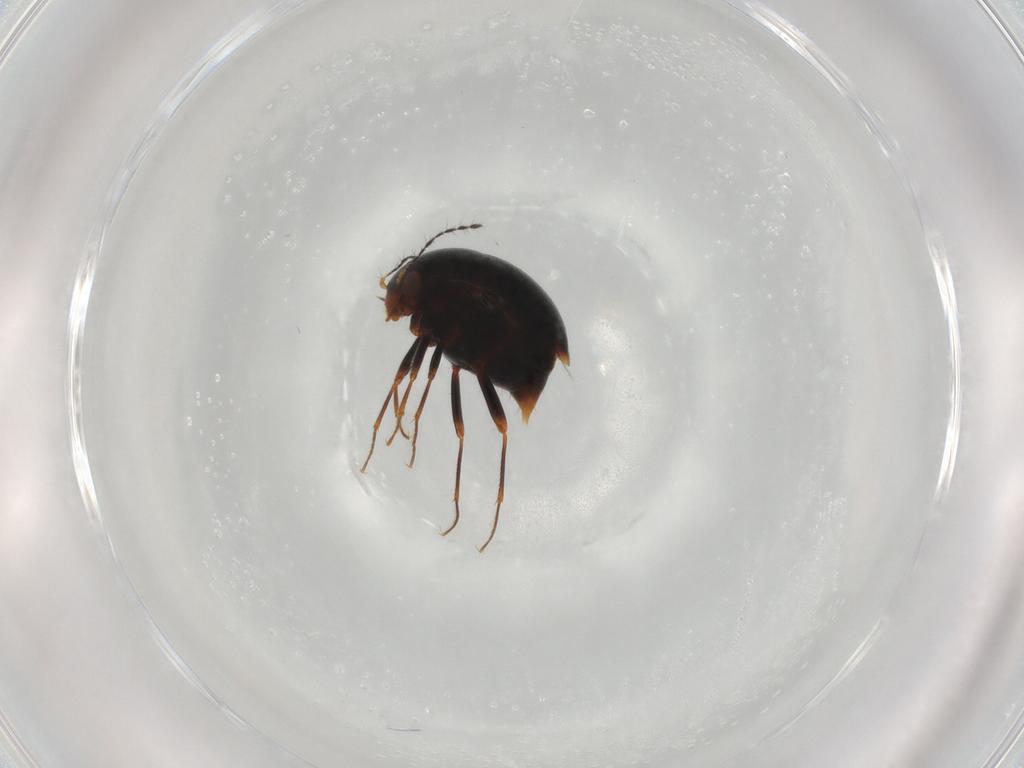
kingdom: Animalia
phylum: Arthropoda
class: Insecta
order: Coleoptera
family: Staphylinidae
